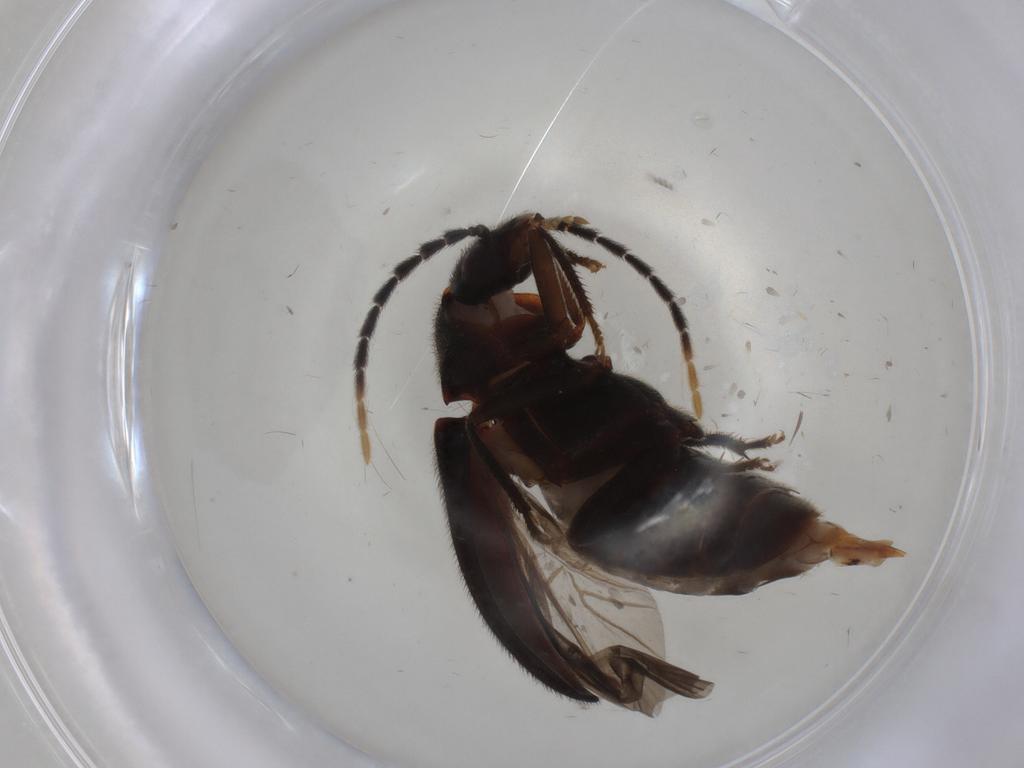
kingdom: Animalia
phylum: Arthropoda
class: Insecta
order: Coleoptera
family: Ptilodactylidae
